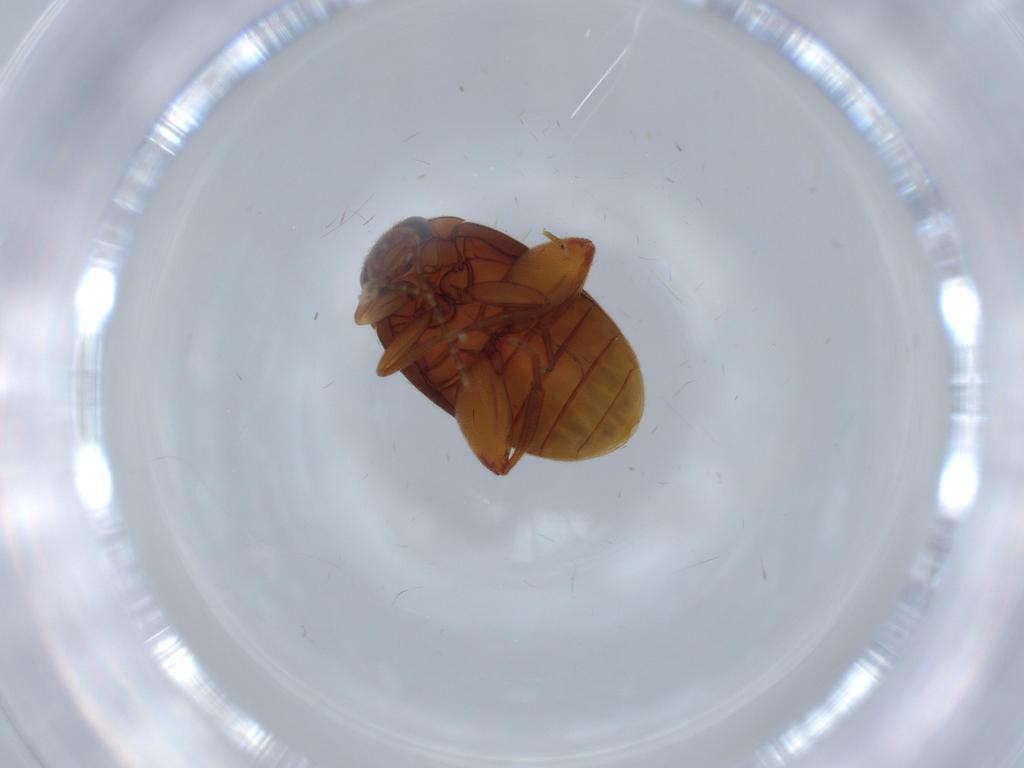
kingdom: Animalia
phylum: Arthropoda
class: Insecta
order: Coleoptera
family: Scirtidae
